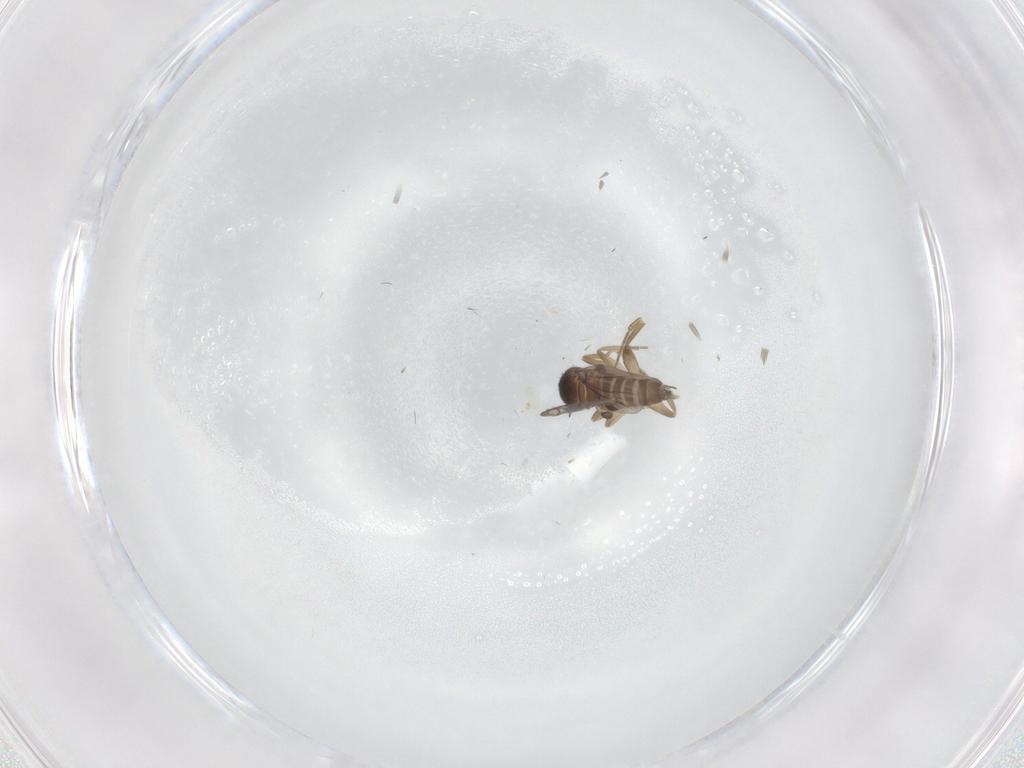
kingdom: Animalia
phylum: Arthropoda
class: Insecta
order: Diptera
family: Phoridae
